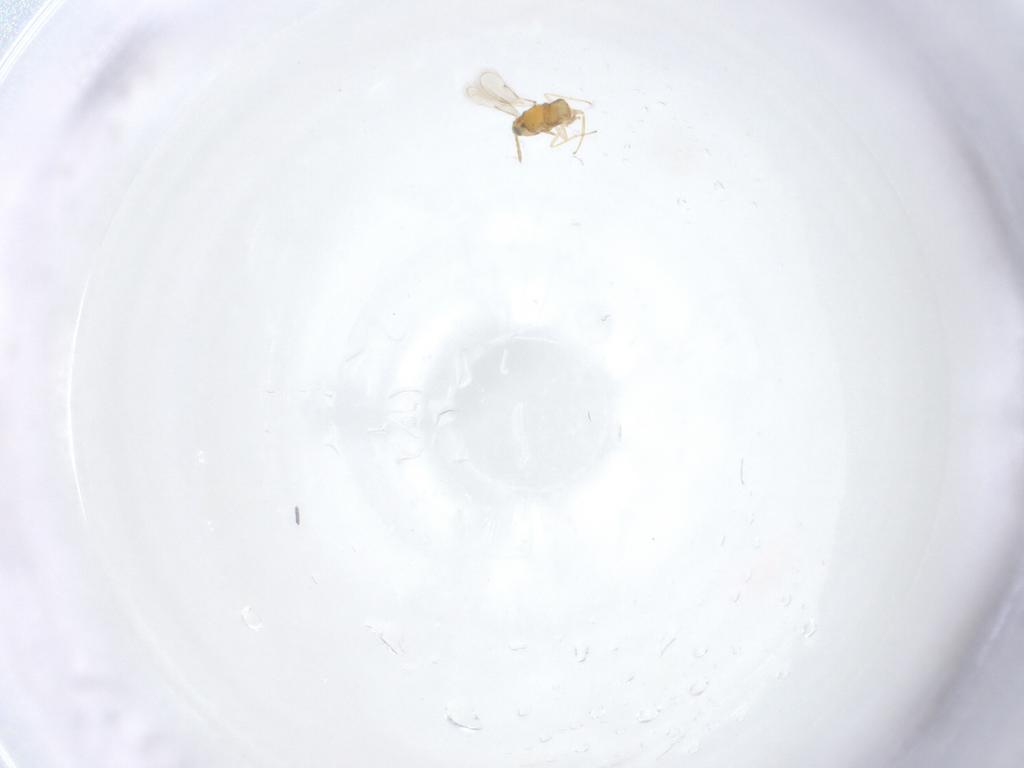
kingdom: Animalia
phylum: Arthropoda
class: Insecta
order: Hymenoptera
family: Aphelinidae
